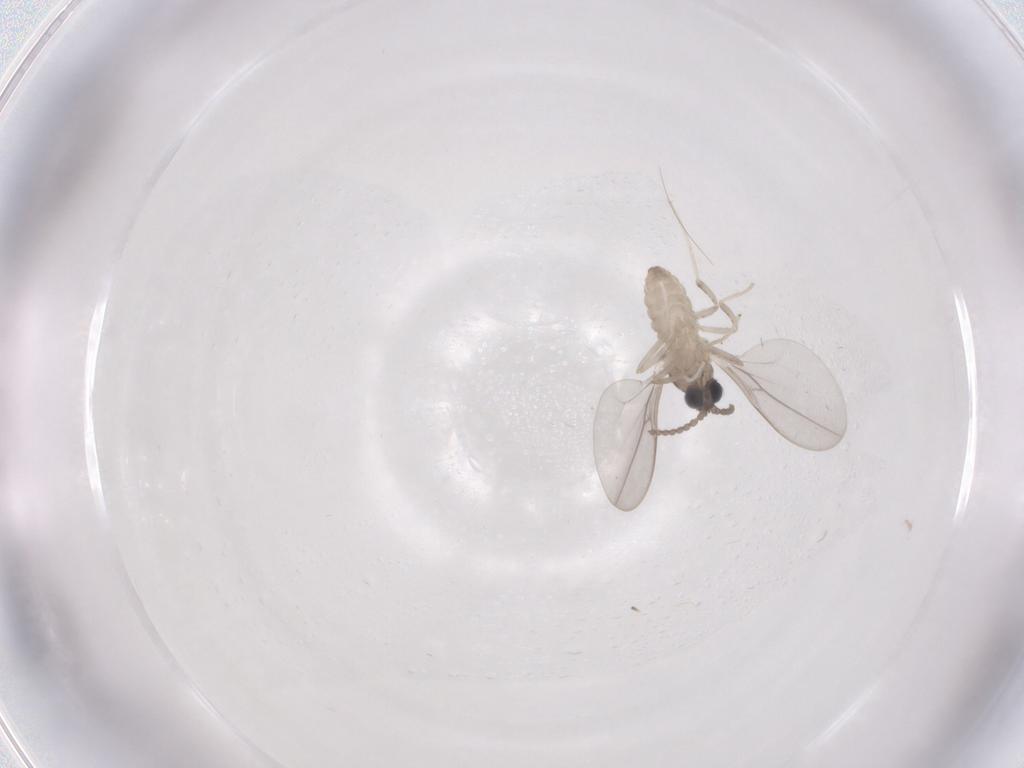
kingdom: Animalia
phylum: Arthropoda
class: Insecta
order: Diptera
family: Cecidomyiidae
